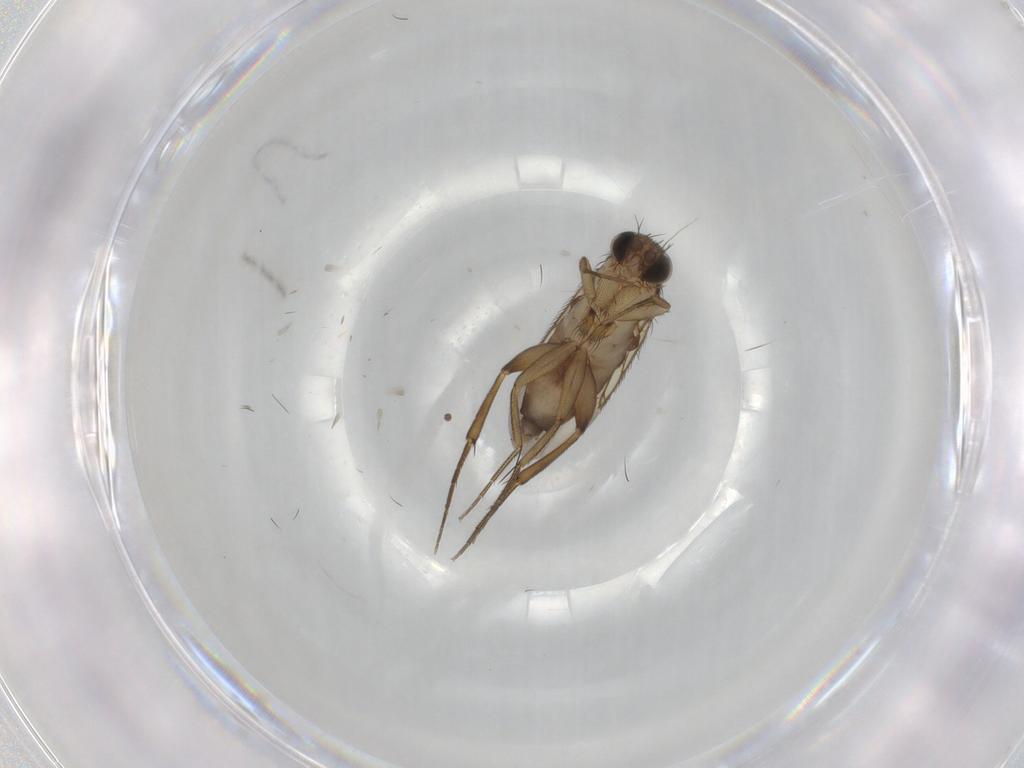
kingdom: Animalia
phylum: Arthropoda
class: Insecta
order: Diptera
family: Phoridae
